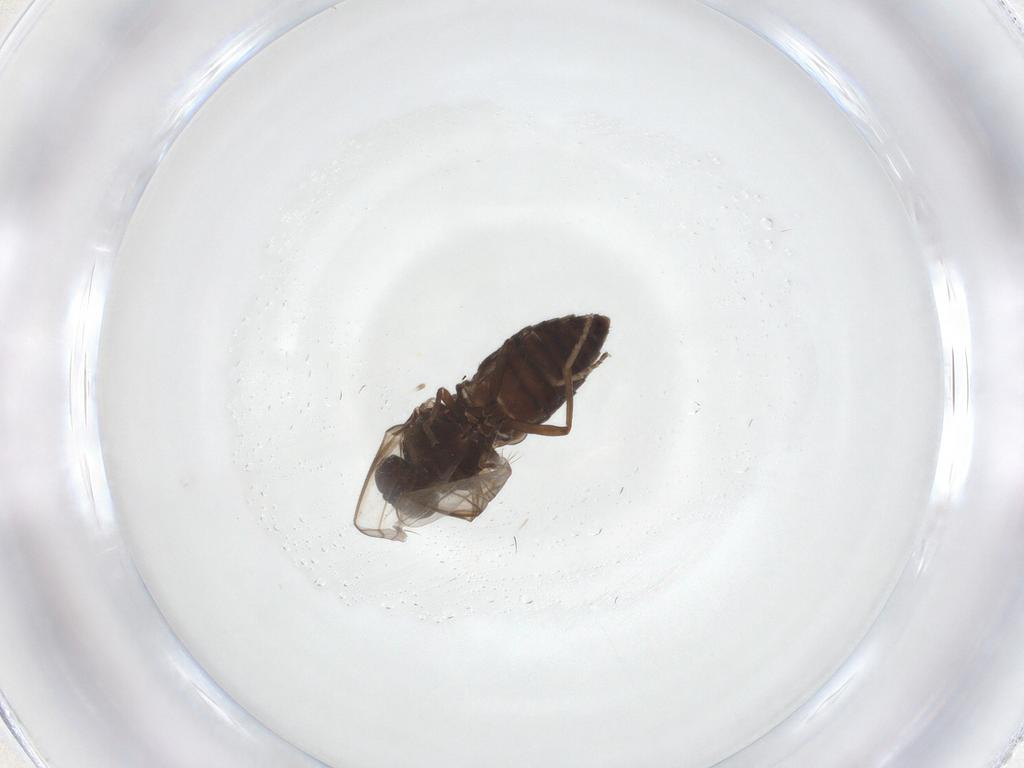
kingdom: Animalia
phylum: Arthropoda
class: Insecta
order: Diptera
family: Scenopinidae
